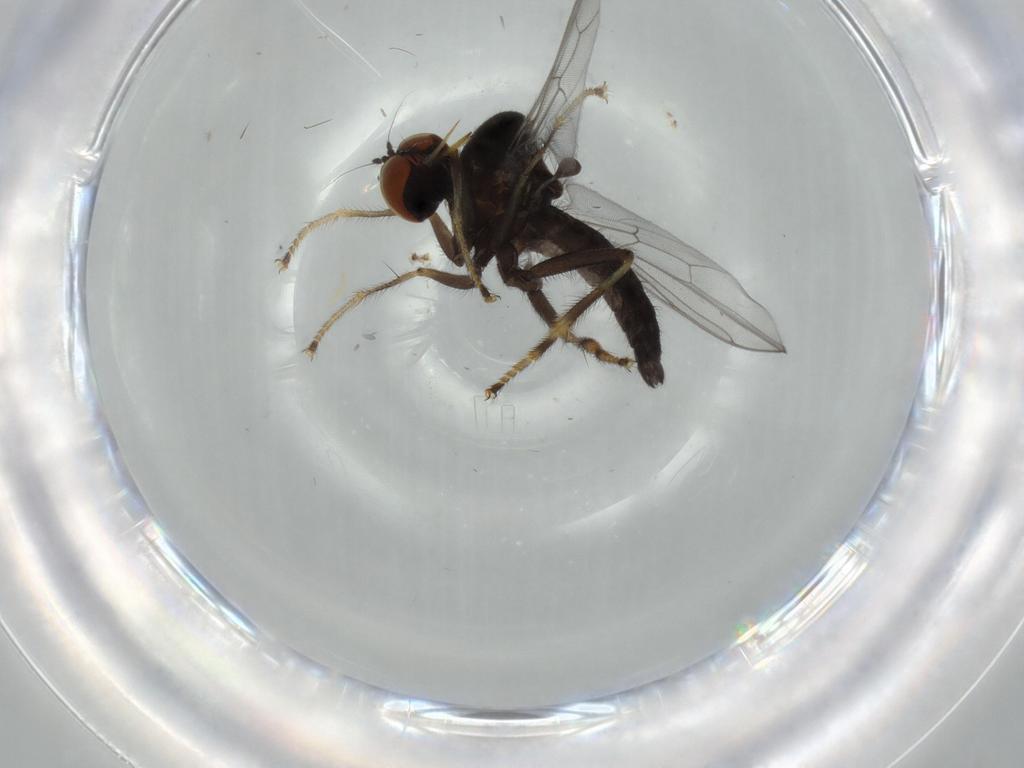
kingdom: Animalia
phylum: Arthropoda
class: Insecta
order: Diptera
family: Hybotidae
